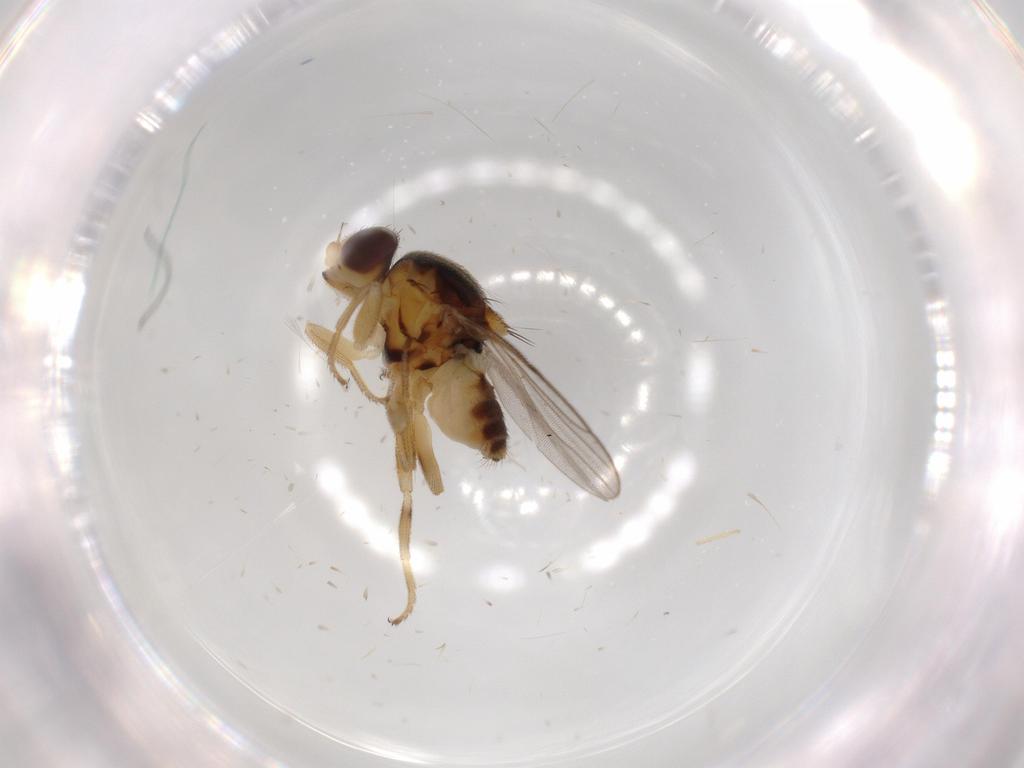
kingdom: Animalia
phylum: Arthropoda
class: Insecta
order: Diptera
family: Chloropidae
